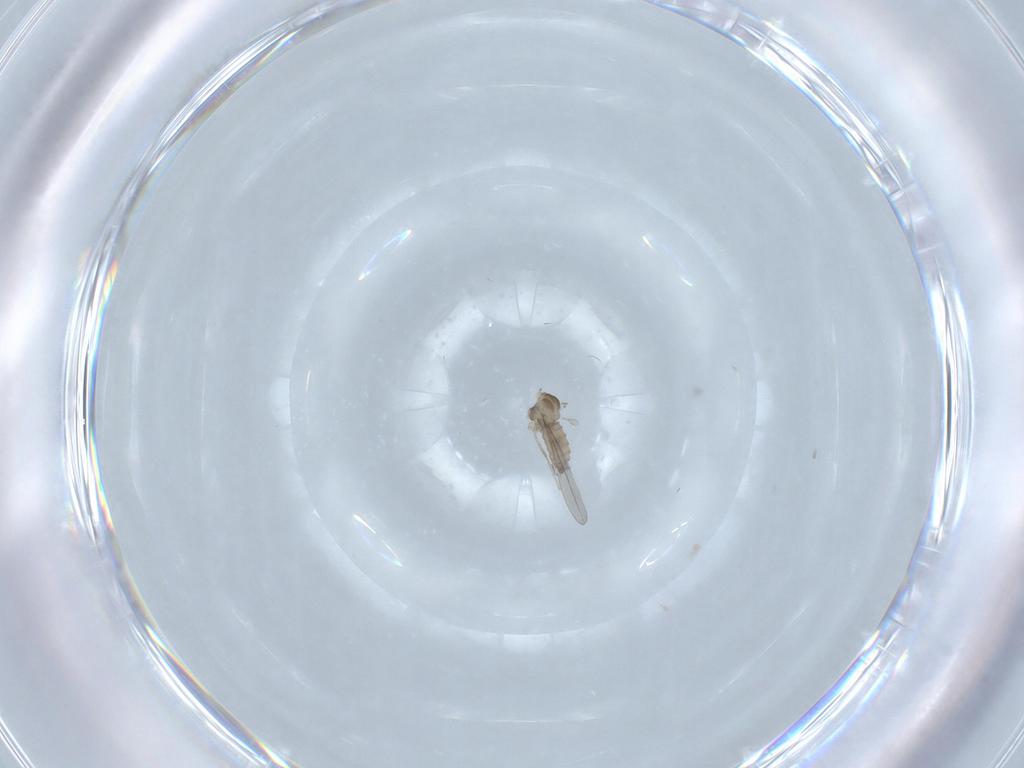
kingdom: Animalia
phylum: Arthropoda
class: Insecta
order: Diptera
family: Cecidomyiidae
